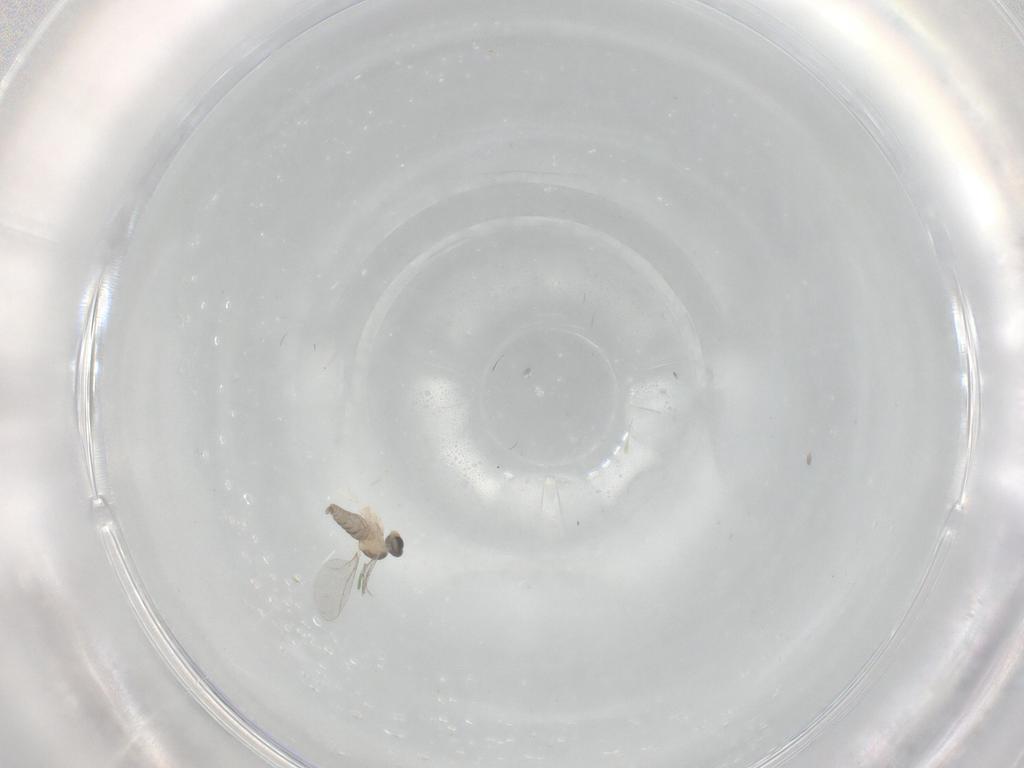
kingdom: Animalia
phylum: Arthropoda
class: Insecta
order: Diptera
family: Cecidomyiidae
